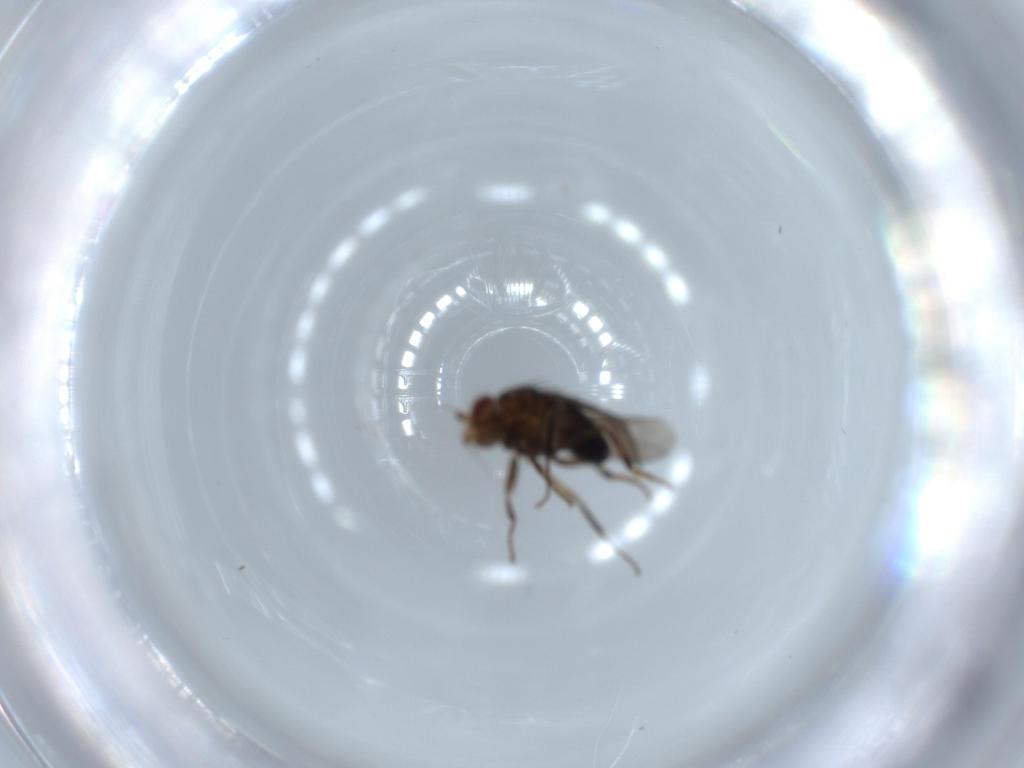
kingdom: Animalia
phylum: Arthropoda
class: Insecta
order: Diptera
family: Sphaeroceridae
